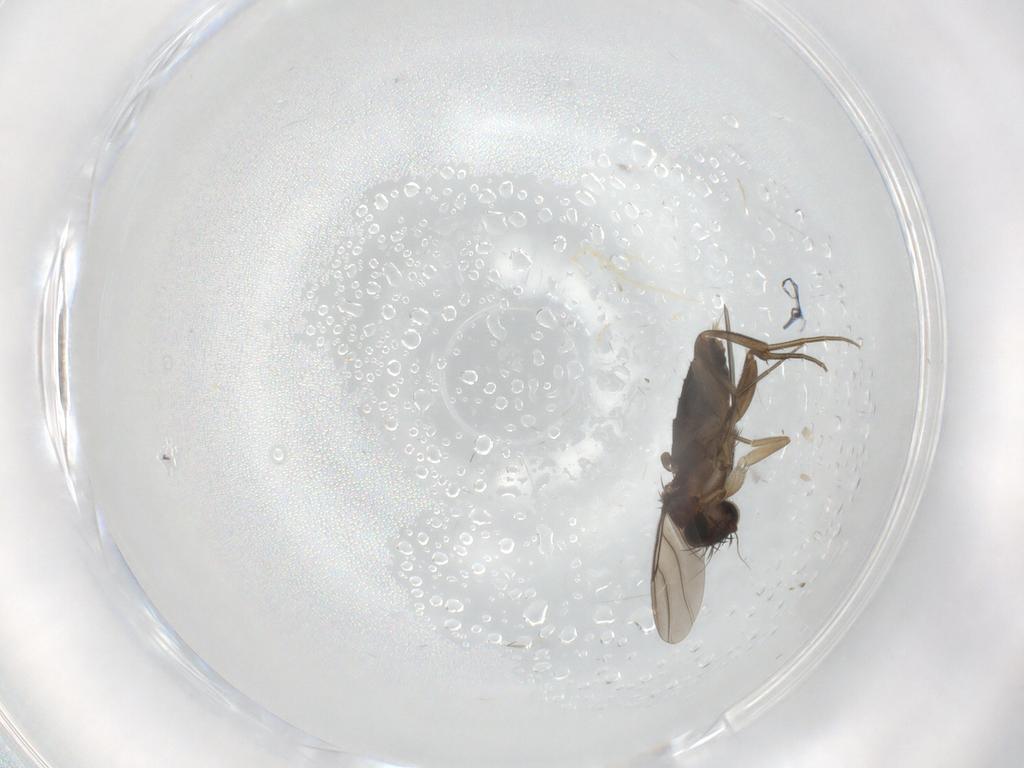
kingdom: Animalia
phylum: Arthropoda
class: Insecta
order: Diptera
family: Phoridae
